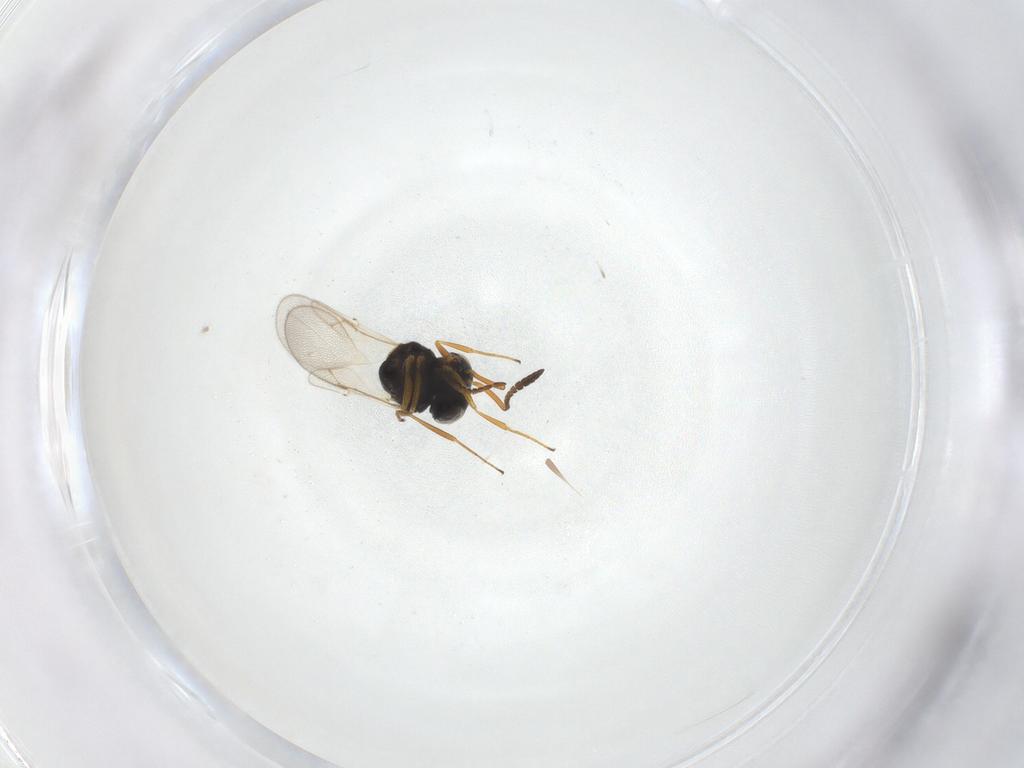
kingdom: Animalia
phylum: Arthropoda
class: Insecta
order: Hymenoptera
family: Scelionidae
